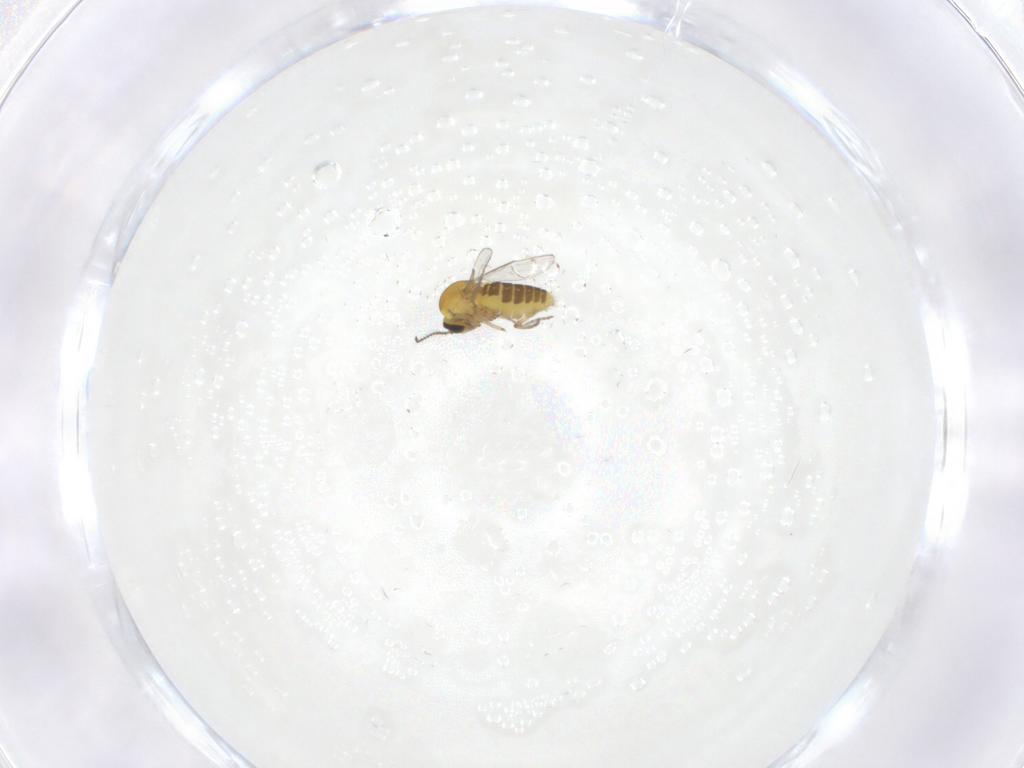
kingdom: Animalia
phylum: Arthropoda
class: Insecta
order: Diptera
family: Ceratopogonidae
